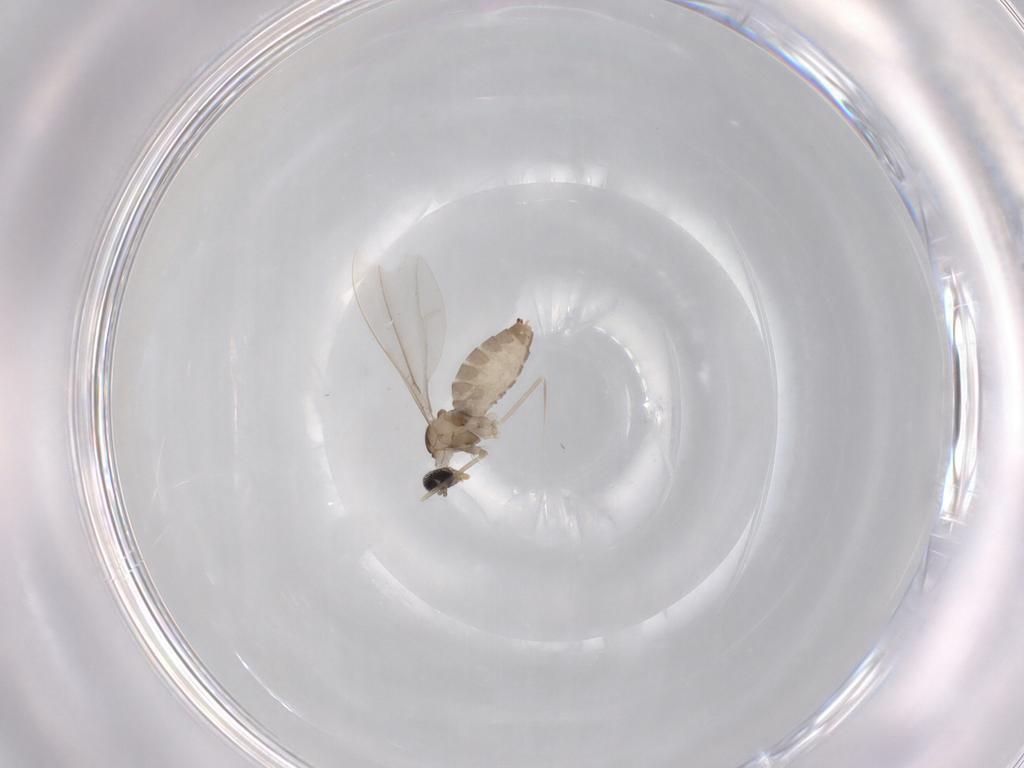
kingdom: Animalia
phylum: Arthropoda
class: Insecta
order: Diptera
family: Cecidomyiidae
